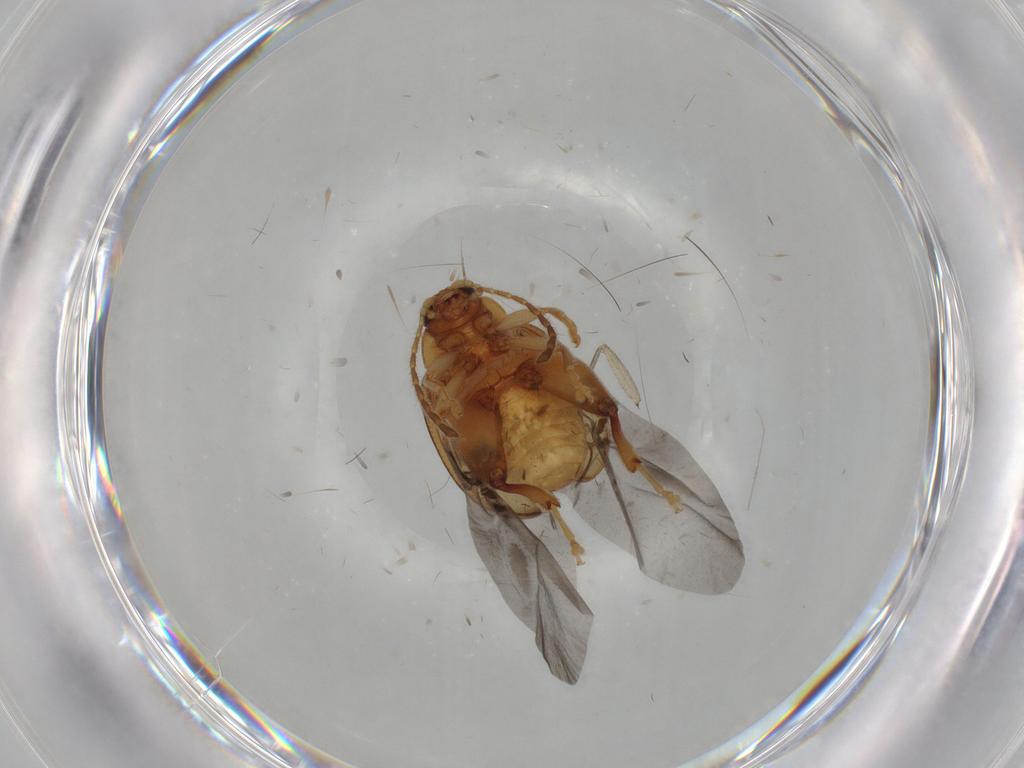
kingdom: Animalia
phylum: Arthropoda
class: Insecta
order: Coleoptera
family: Chrysomelidae
